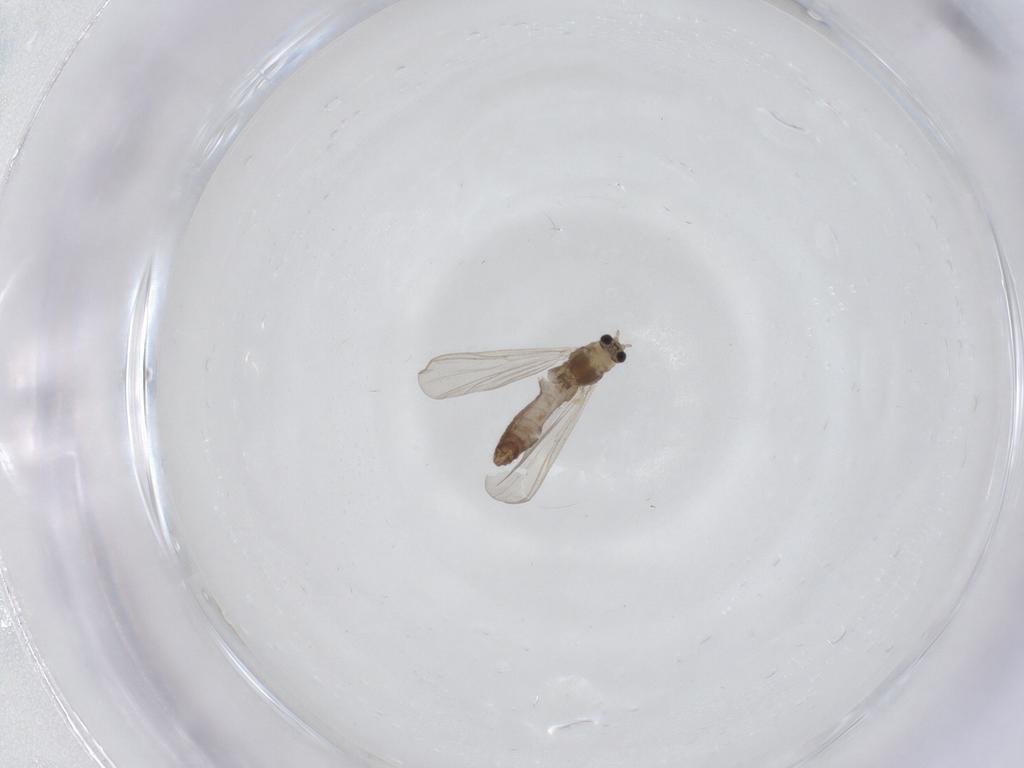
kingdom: Animalia
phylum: Arthropoda
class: Insecta
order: Diptera
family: Chironomidae
